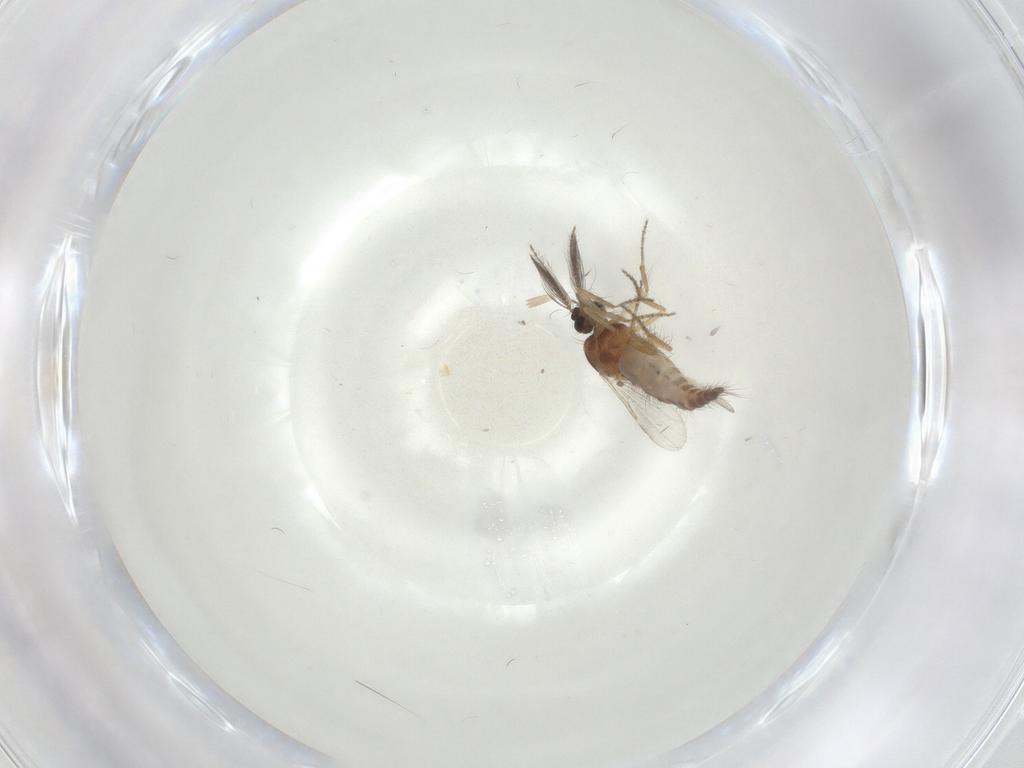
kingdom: Animalia
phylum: Arthropoda
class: Insecta
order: Diptera
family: Ceratopogonidae
